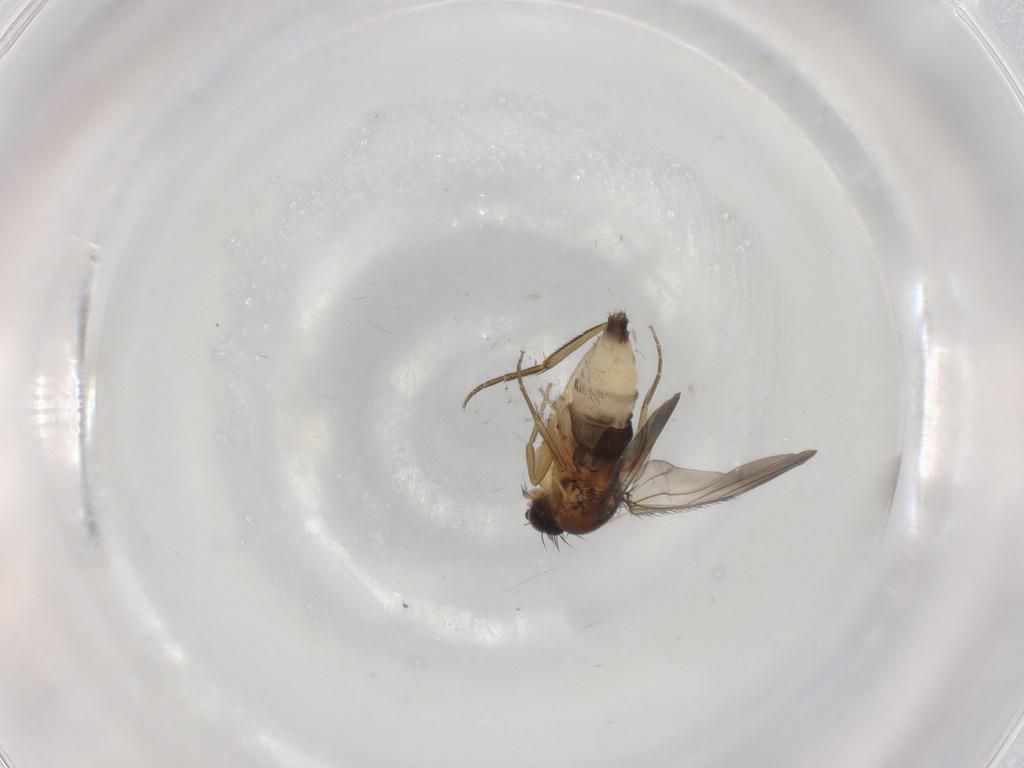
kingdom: Animalia
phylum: Arthropoda
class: Insecta
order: Diptera
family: Phoridae
